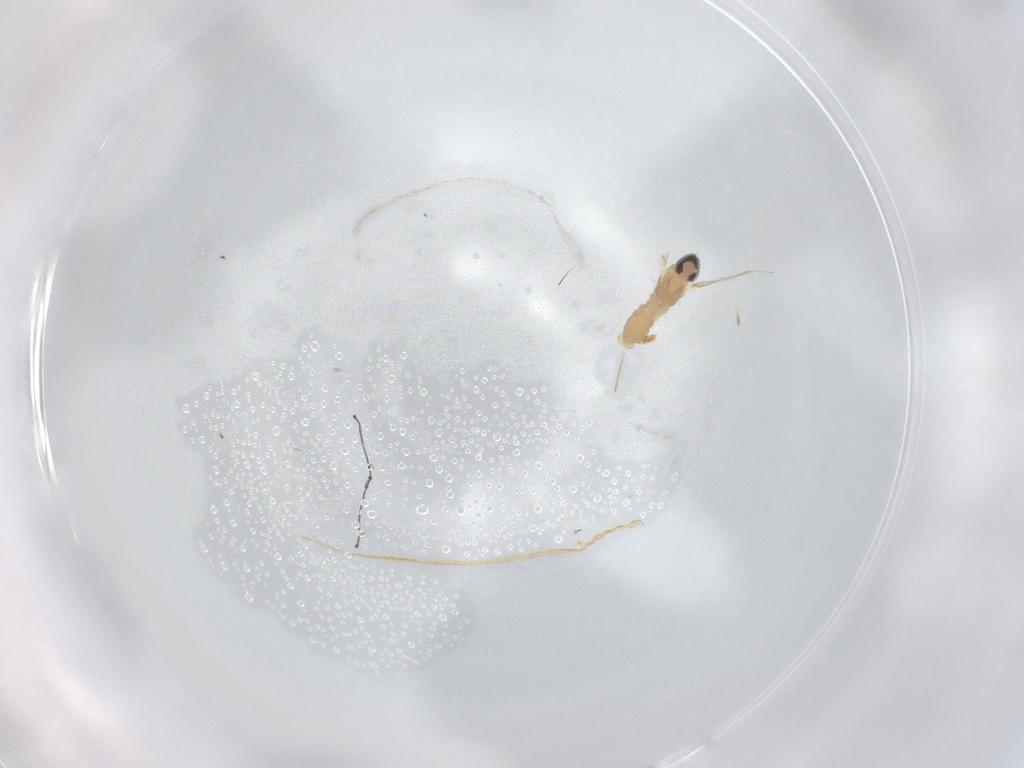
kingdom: Animalia
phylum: Arthropoda
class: Insecta
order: Diptera
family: Cecidomyiidae
